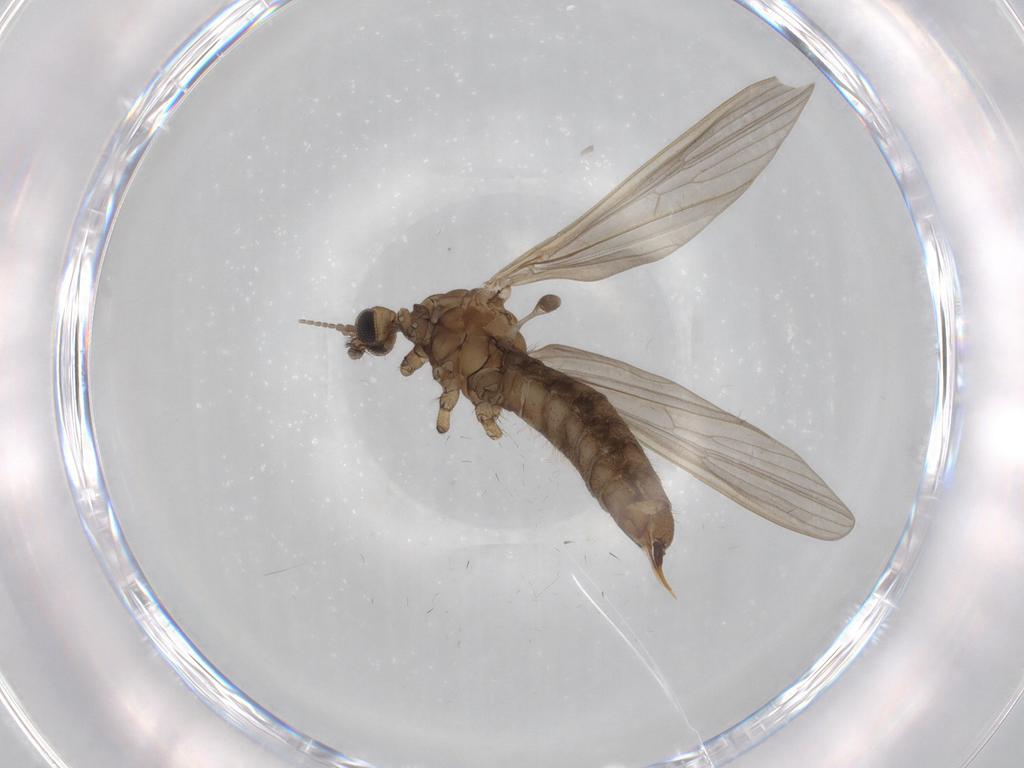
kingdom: Animalia
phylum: Arthropoda
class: Insecta
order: Diptera
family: Limoniidae
